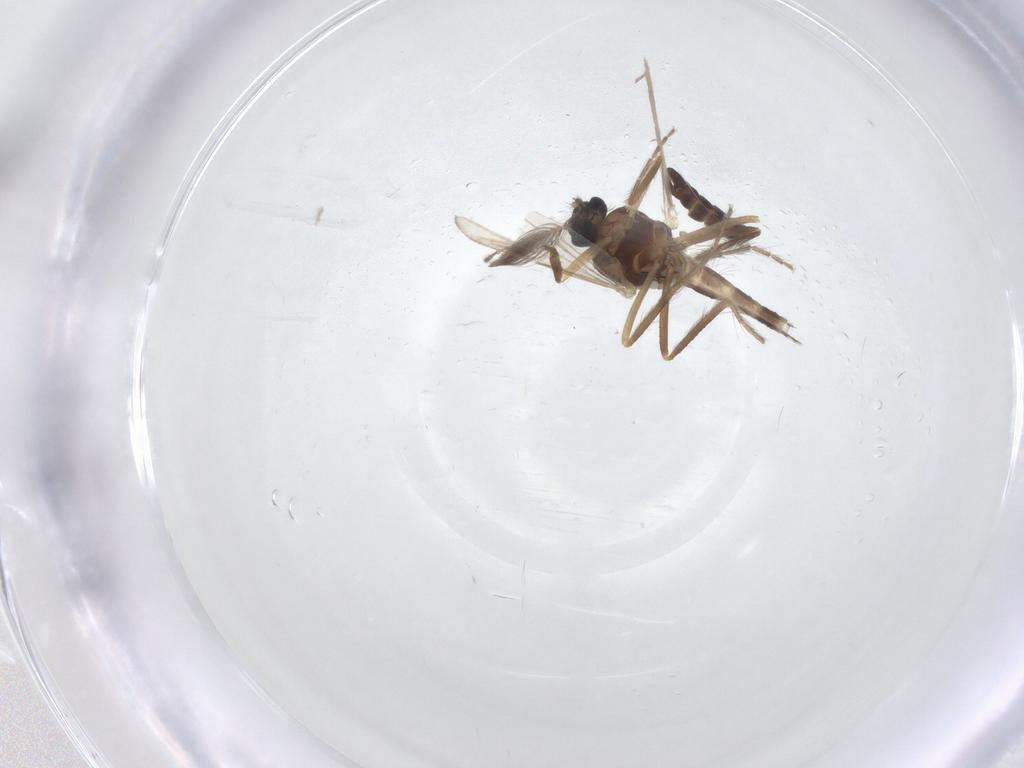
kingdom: Animalia
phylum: Arthropoda
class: Insecta
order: Diptera
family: Ceratopogonidae
